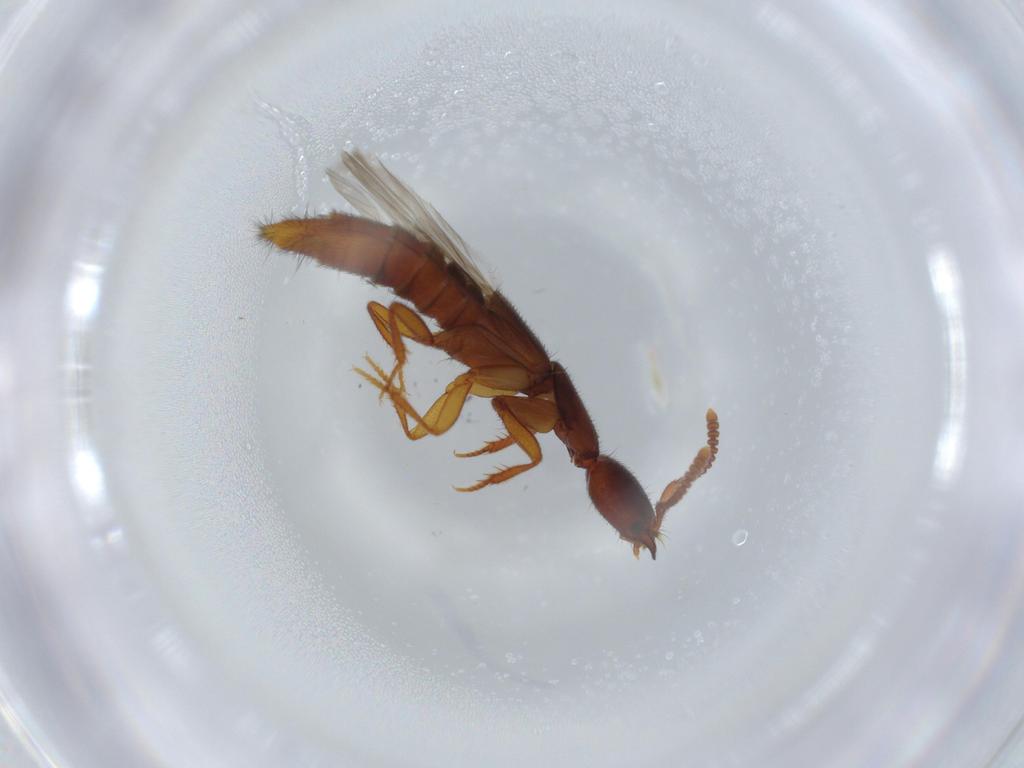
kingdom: Animalia
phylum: Arthropoda
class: Insecta
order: Coleoptera
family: Staphylinidae
